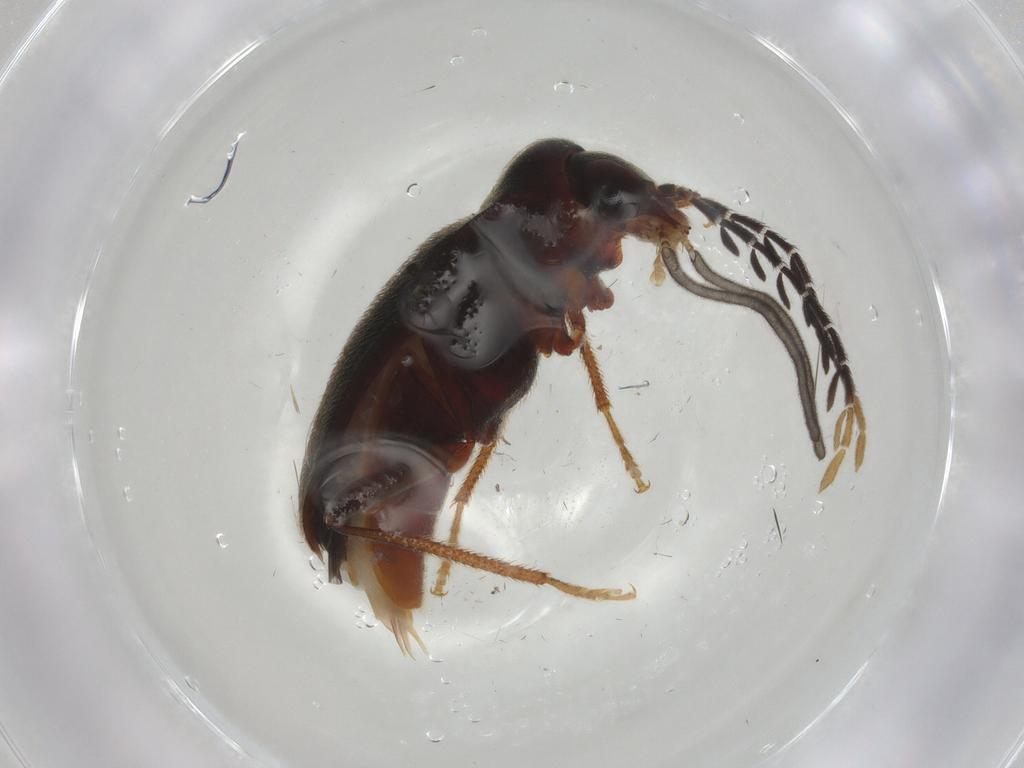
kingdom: Animalia
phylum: Arthropoda
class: Insecta
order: Coleoptera
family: Ptilodactylidae
